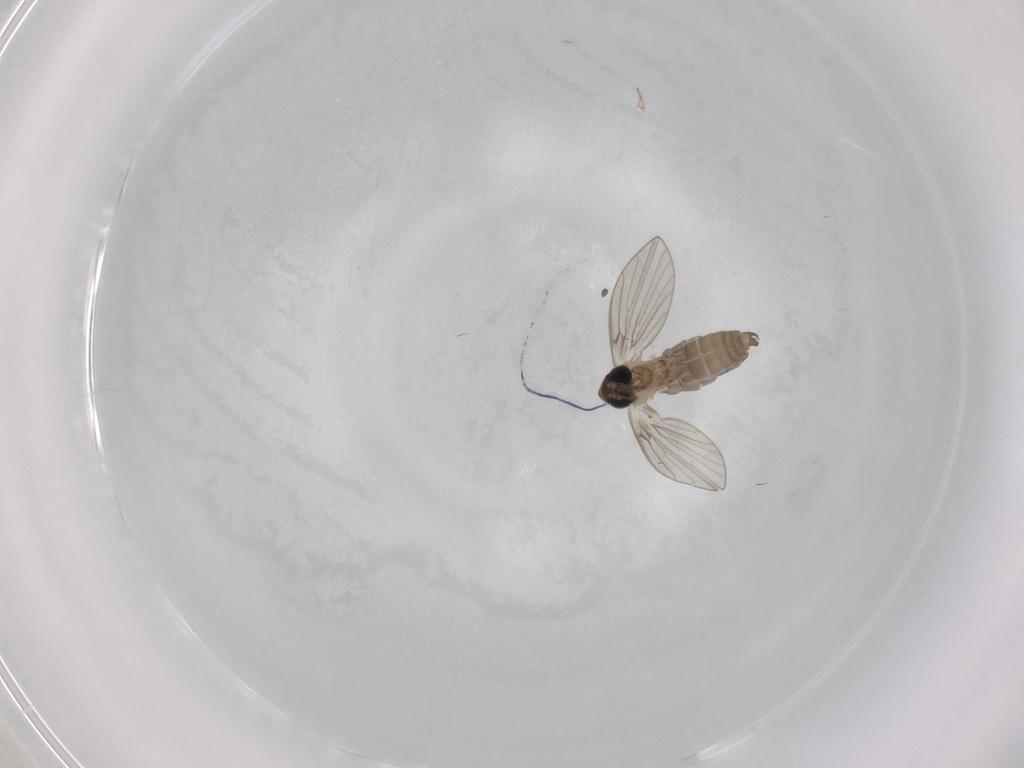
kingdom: Animalia
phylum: Arthropoda
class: Insecta
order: Diptera
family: Psychodidae
